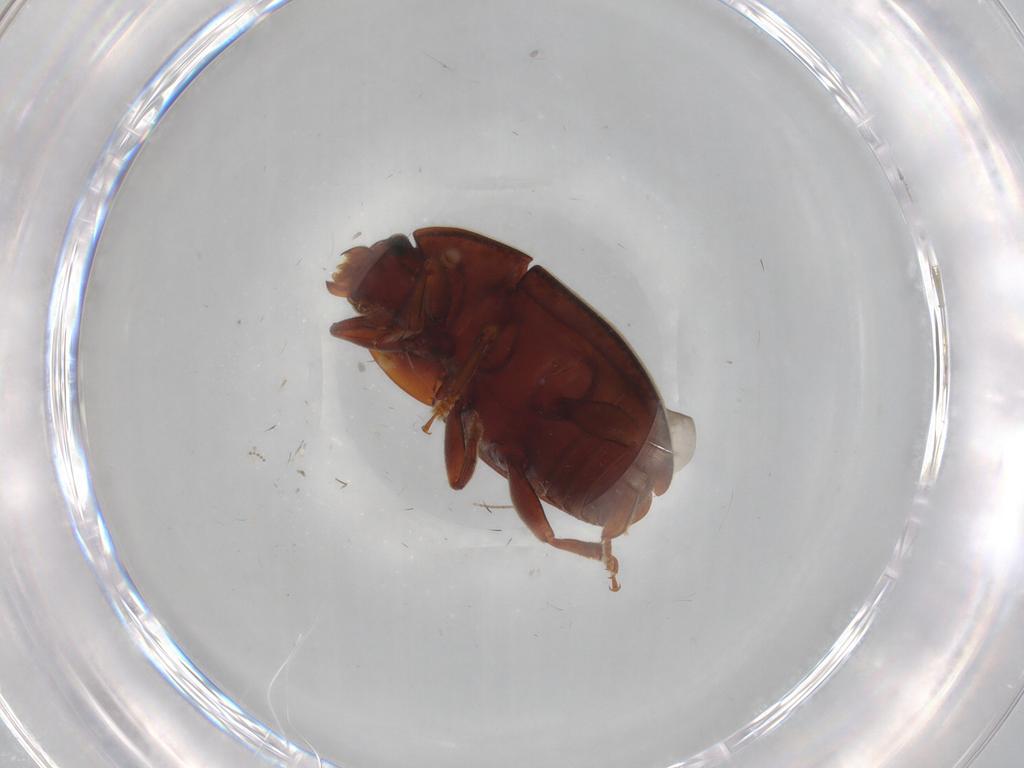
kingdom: Animalia
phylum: Arthropoda
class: Insecta
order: Coleoptera
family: Nitidulidae
